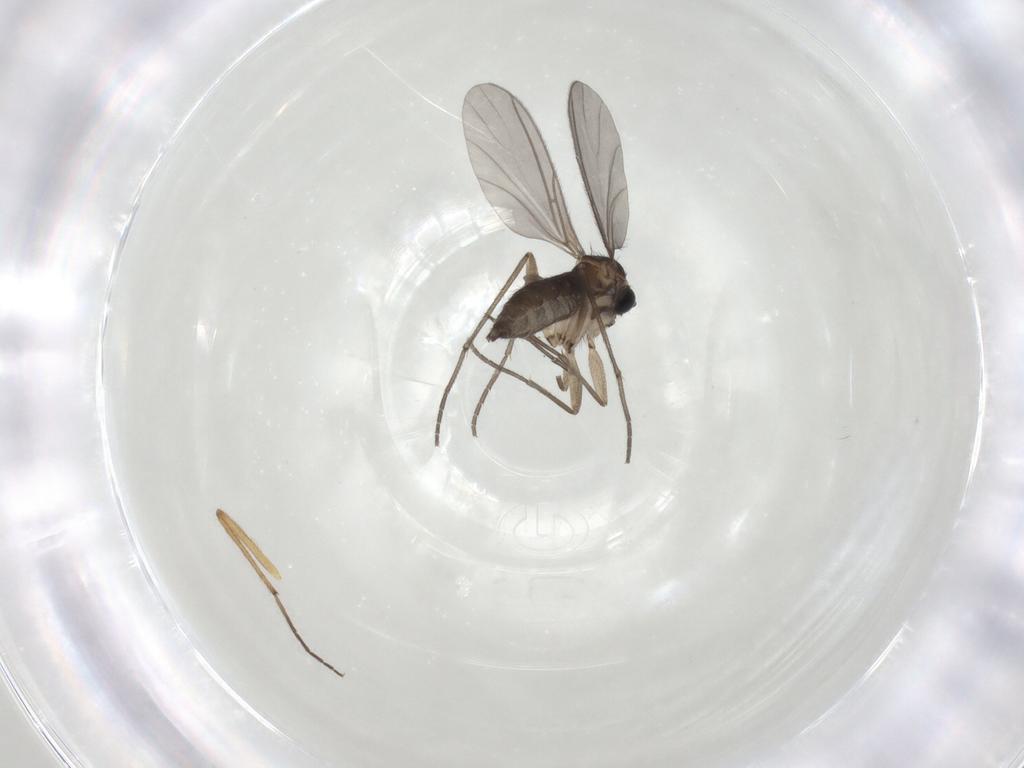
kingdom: Animalia
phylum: Arthropoda
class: Insecta
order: Diptera
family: Sciaridae
